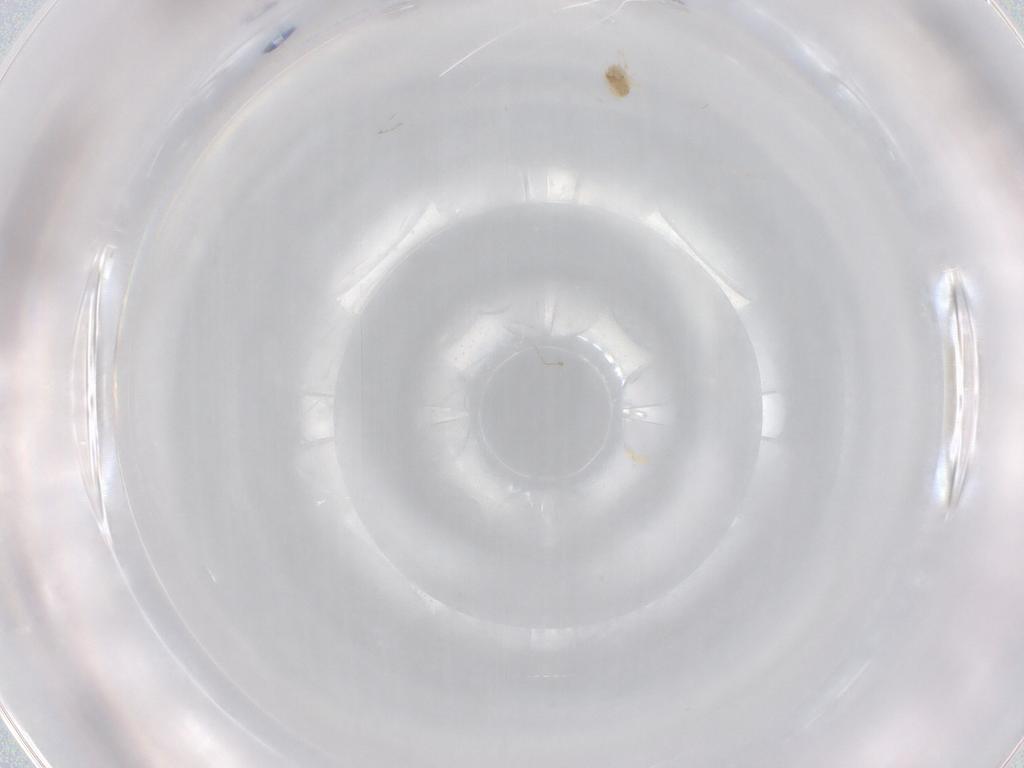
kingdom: Animalia
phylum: Arthropoda
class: Arachnida
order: Trombidiformes
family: Eupodidae
